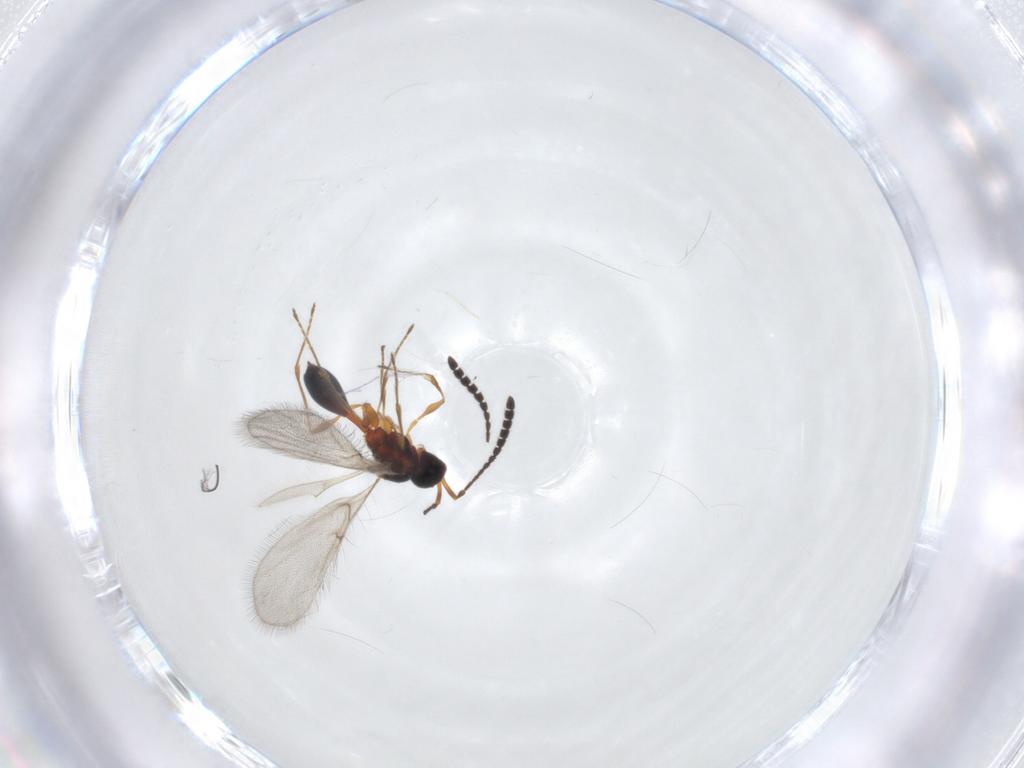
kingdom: Animalia
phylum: Arthropoda
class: Insecta
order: Hymenoptera
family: Diapriidae
